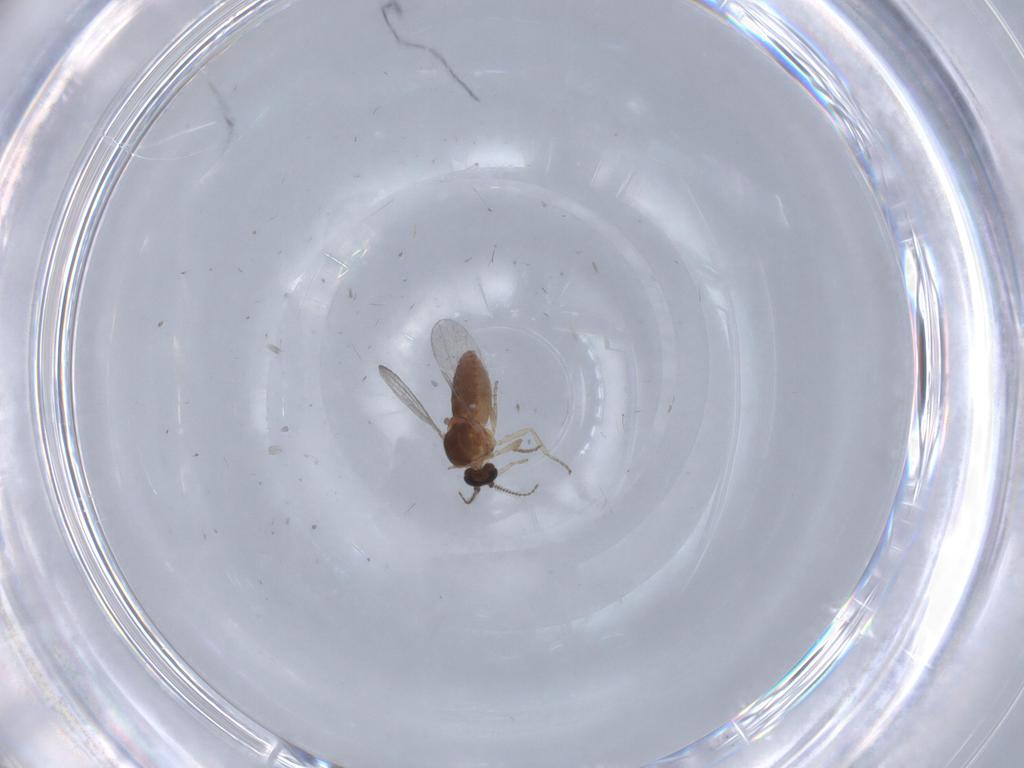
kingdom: Animalia
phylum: Arthropoda
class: Insecta
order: Diptera
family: Ceratopogonidae
